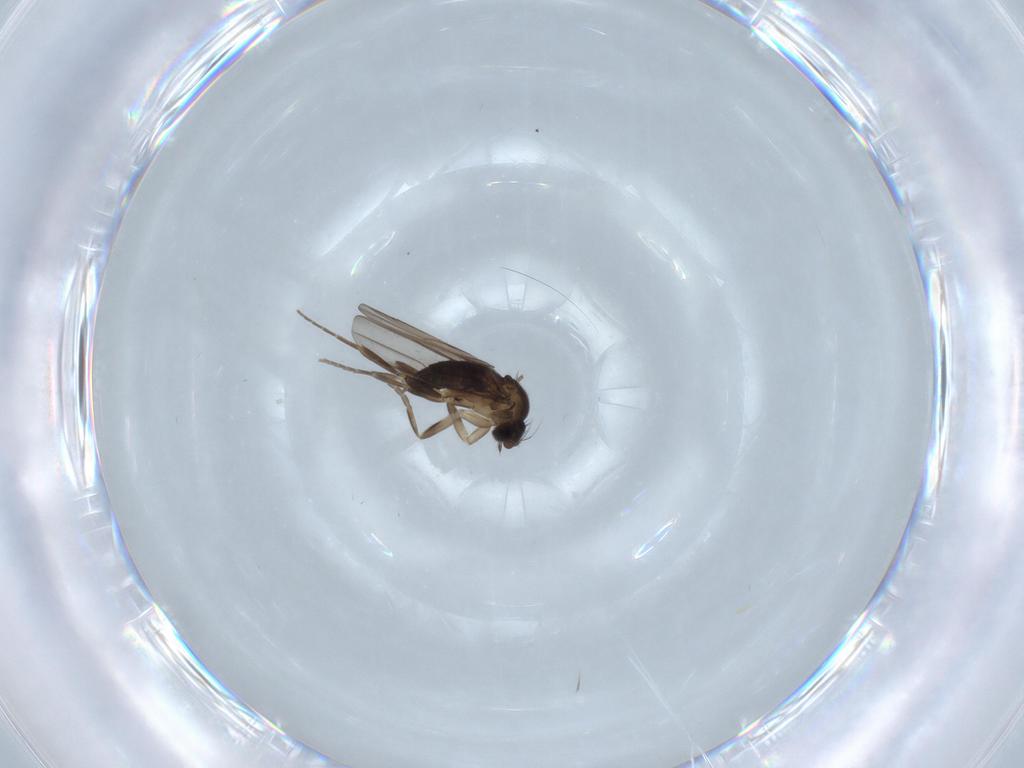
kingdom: Animalia
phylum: Arthropoda
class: Insecta
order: Diptera
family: Phoridae
